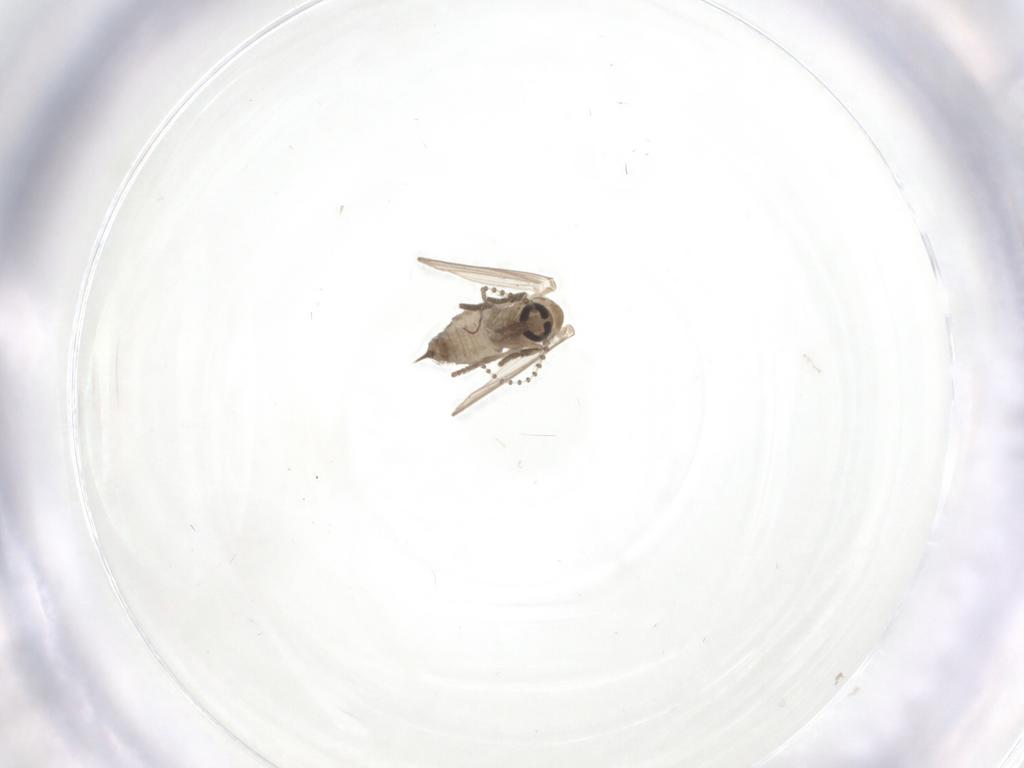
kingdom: Animalia
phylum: Arthropoda
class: Insecta
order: Diptera
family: Psychodidae
